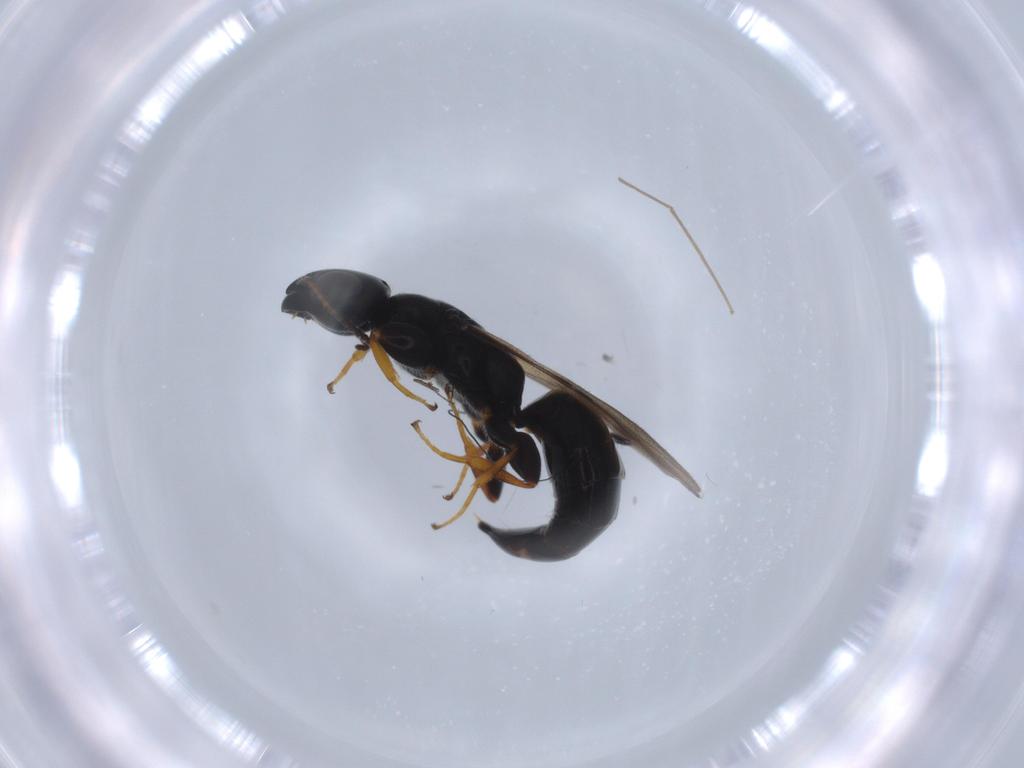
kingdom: Animalia
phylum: Arthropoda
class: Insecta
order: Hymenoptera
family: Bethylidae
